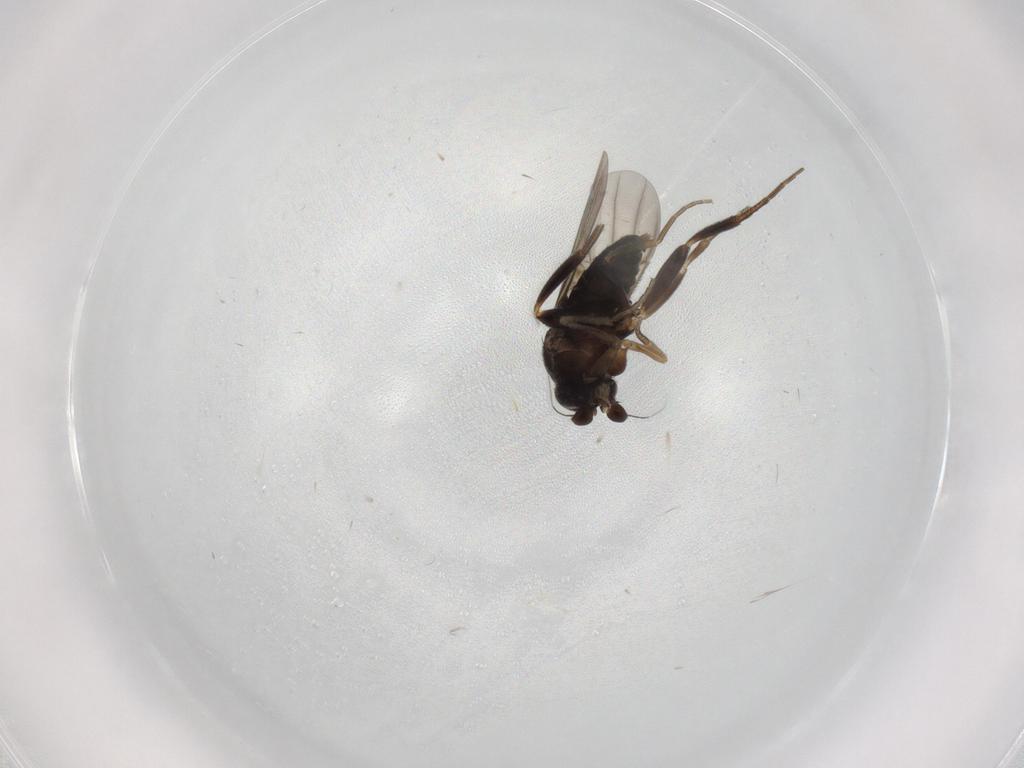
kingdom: Animalia
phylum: Arthropoda
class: Insecta
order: Diptera
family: Phoridae
